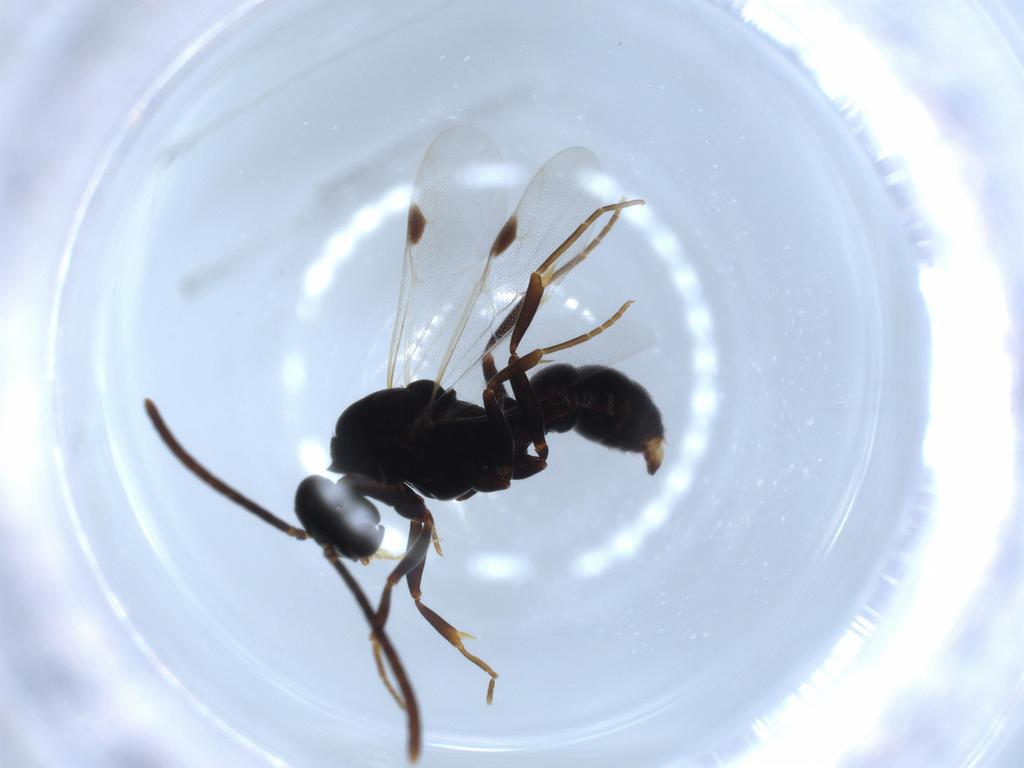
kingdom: Animalia
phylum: Arthropoda
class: Insecta
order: Hymenoptera
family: Formicidae
